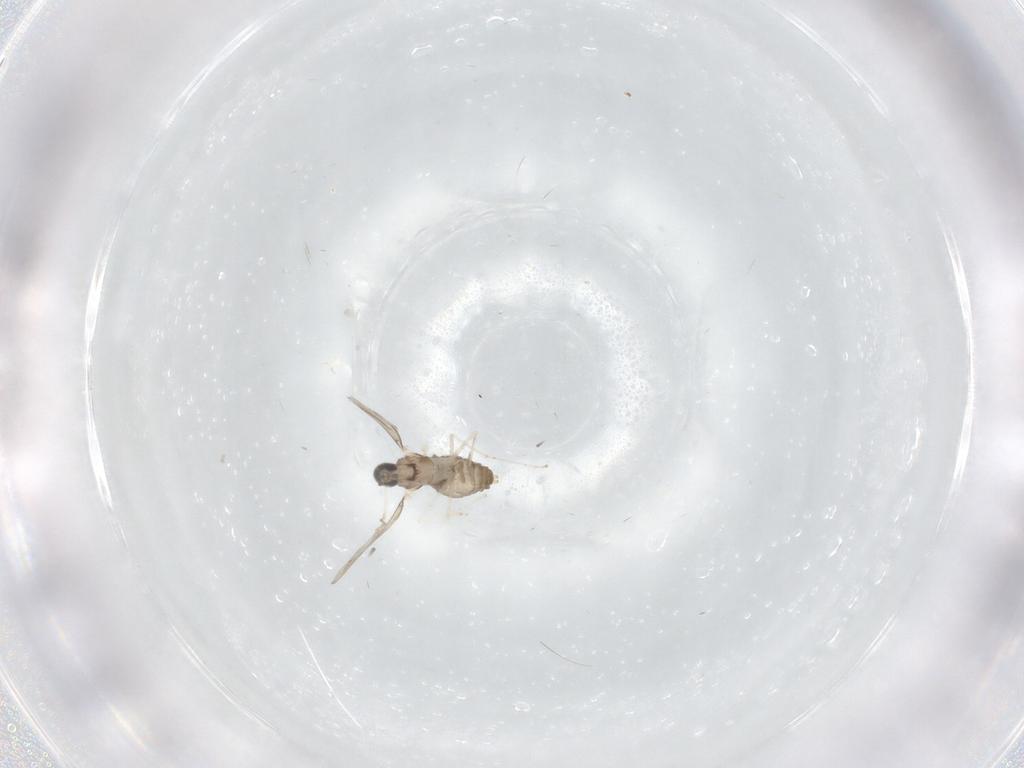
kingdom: Animalia
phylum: Arthropoda
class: Insecta
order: Diptera
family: Cecidomyiidae
